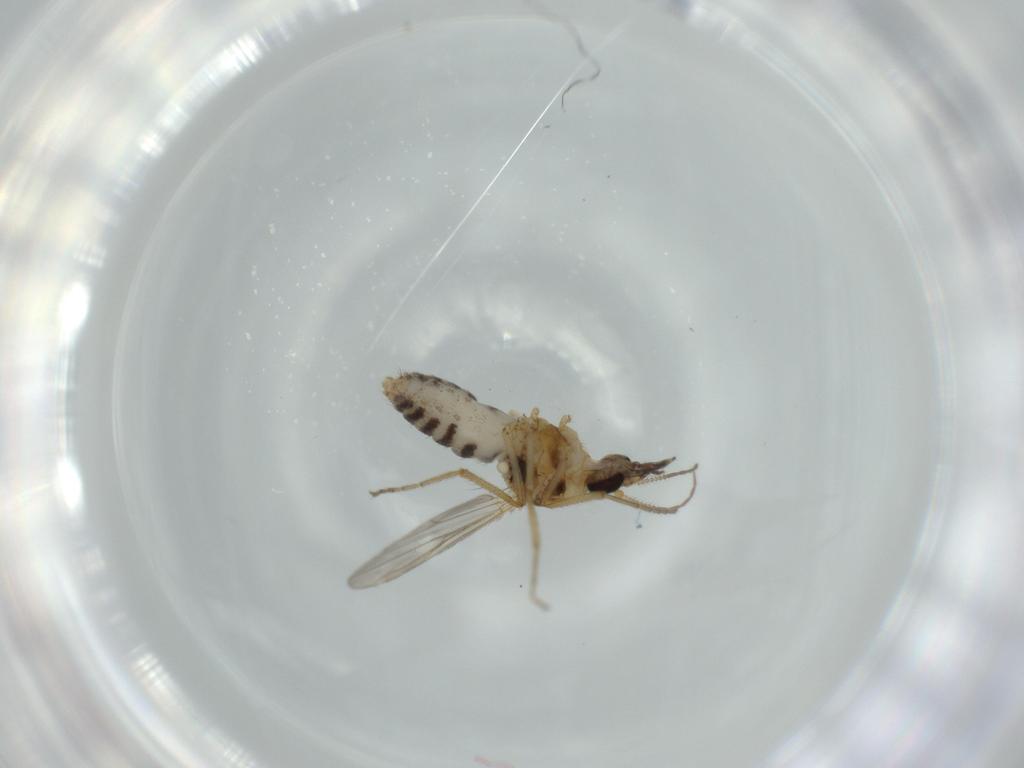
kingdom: Animalia
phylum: Arthropoda
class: Insecta
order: Diptera
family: Ceratopogonidae
